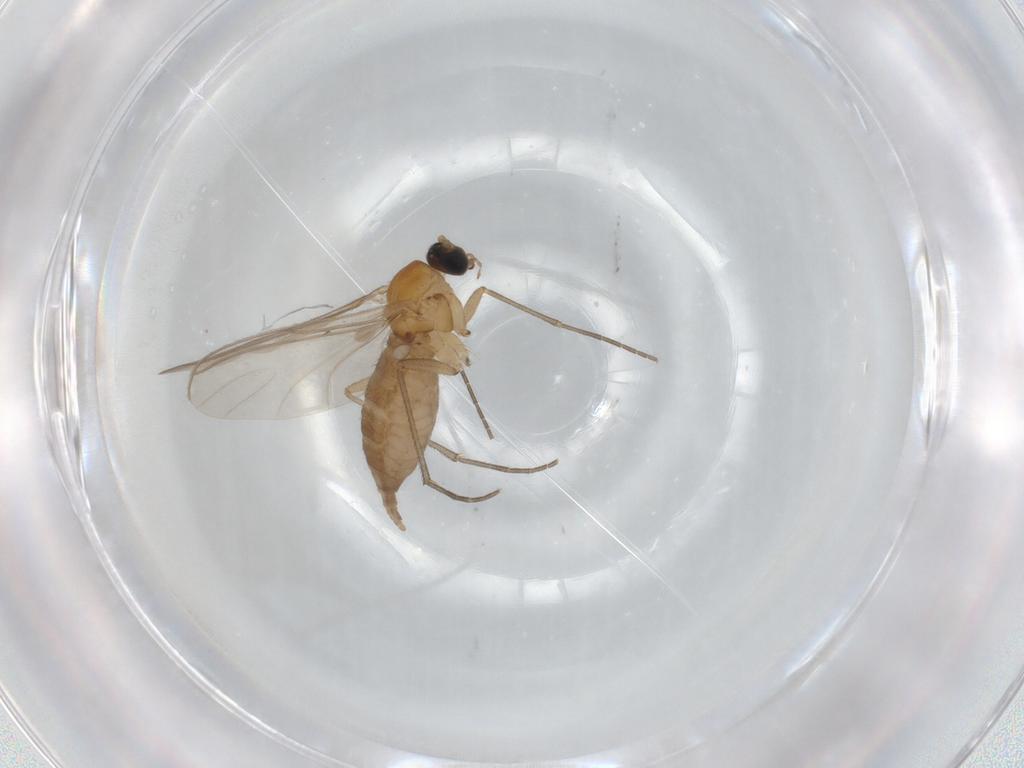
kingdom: Animalia
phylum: Arthropoda
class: Insecta
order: Diptera
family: Sciaridae
